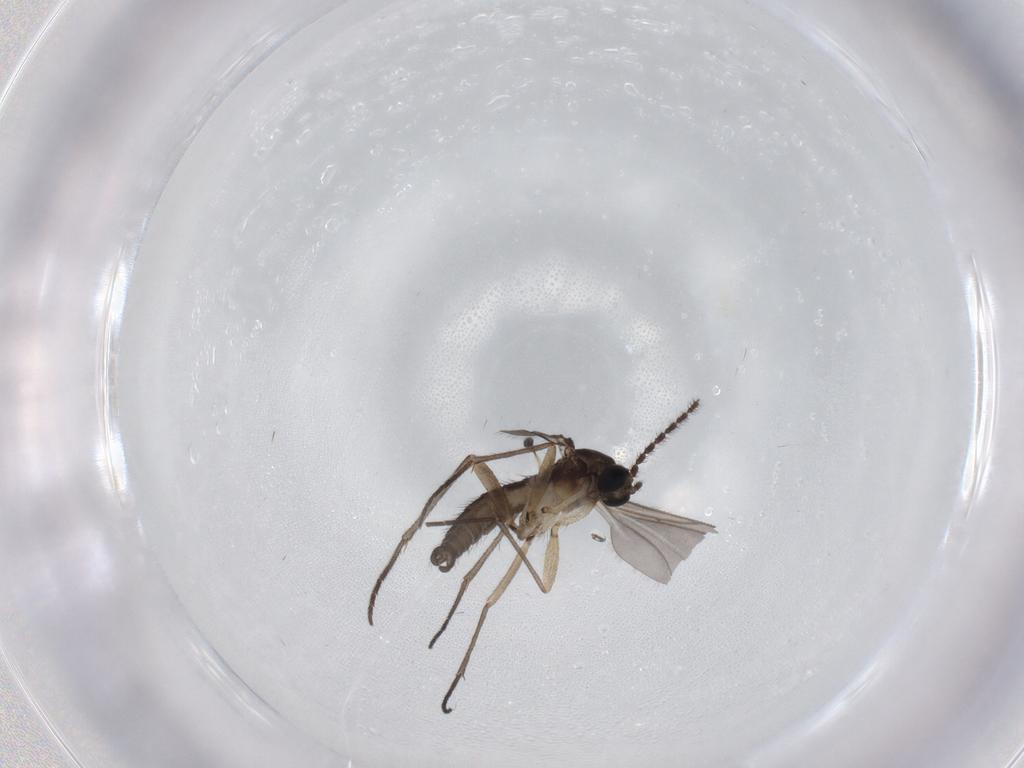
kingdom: Animalia
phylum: Arthropoda
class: Insecta
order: Diptera
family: Sciaridae
